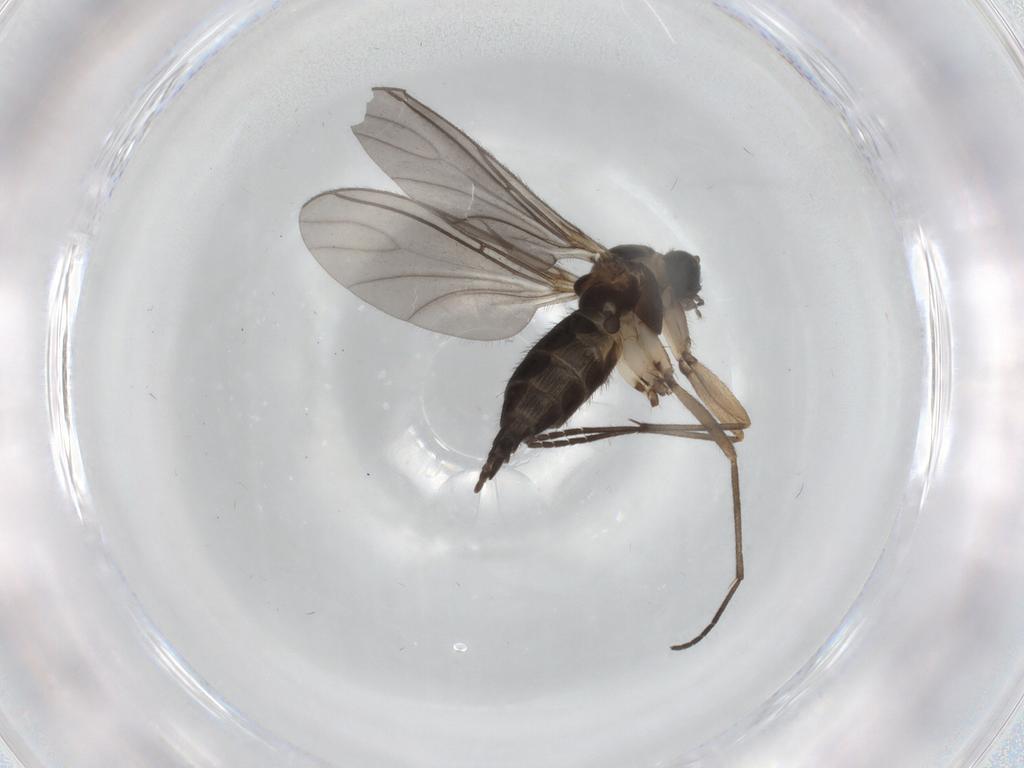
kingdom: Animalia
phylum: Arthropoda
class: Insecta
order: Diptera
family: Sciaridae
